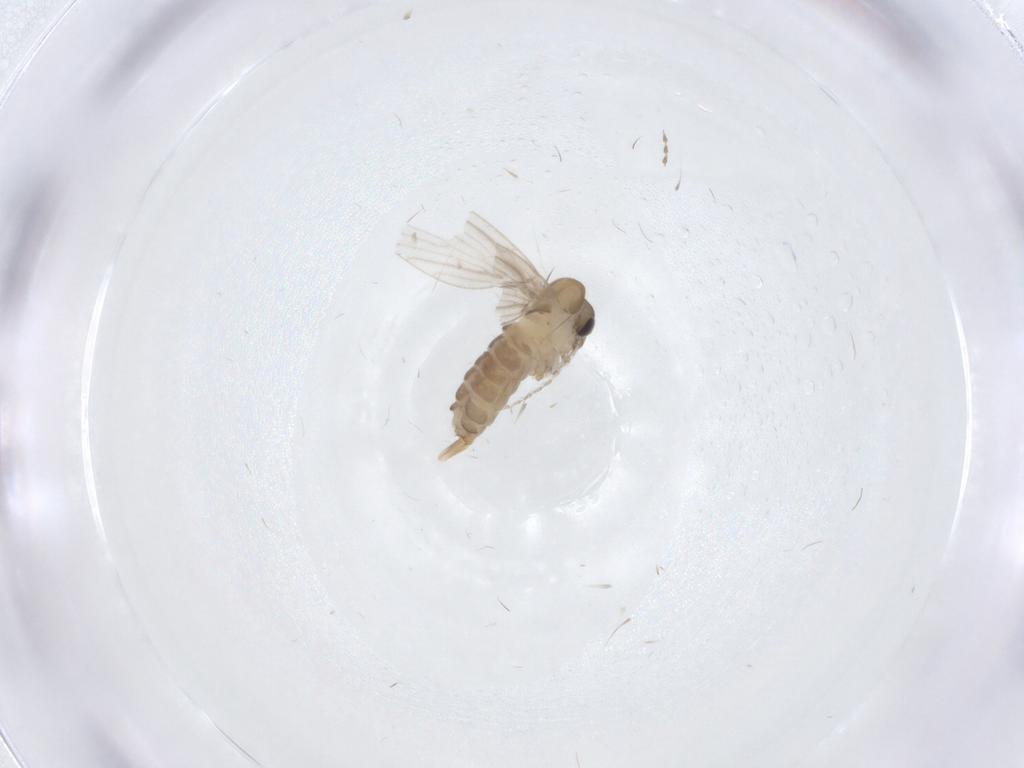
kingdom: Animalia
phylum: Arthropoda
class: Insecta
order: Diptera
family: Psychodidae
